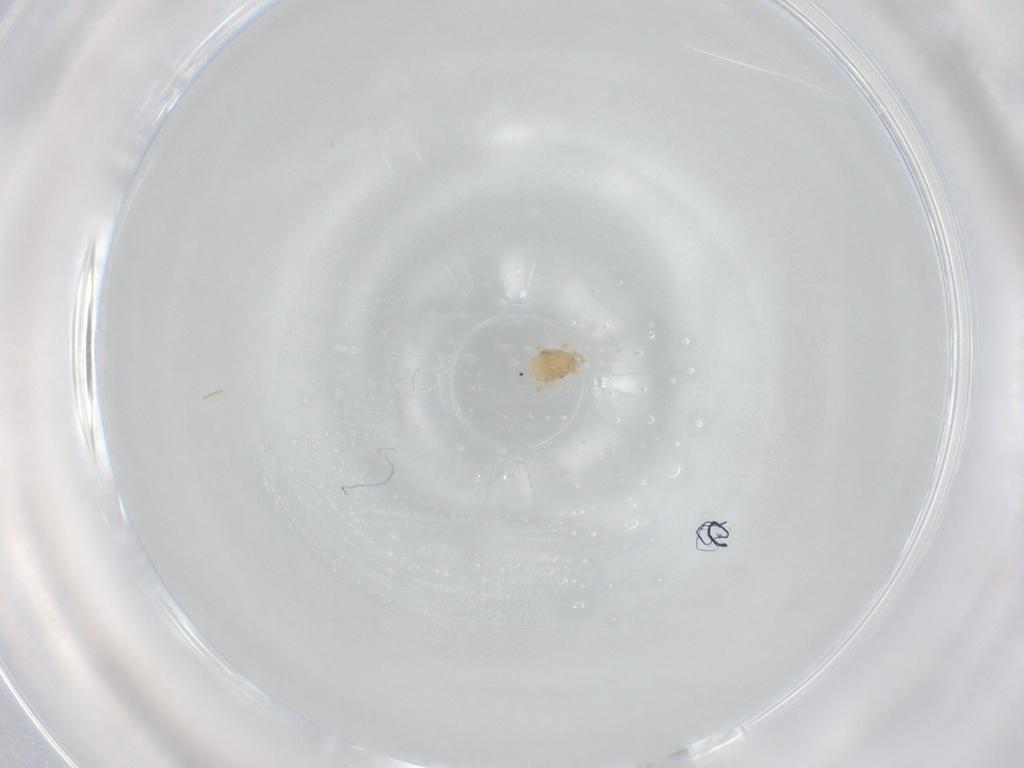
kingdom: Animalia
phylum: Arthropoda
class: Arachnida
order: Mesostigmata
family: Melicharidae
